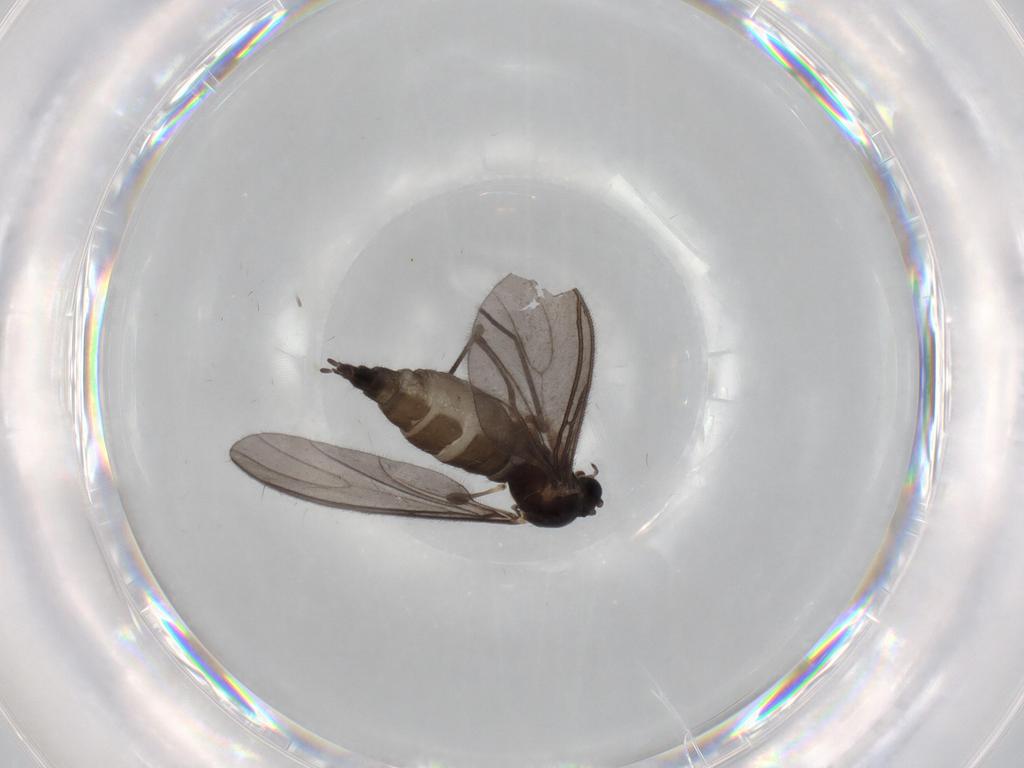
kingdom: Animalia
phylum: Arthropoda
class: Insecta
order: Diptera
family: Sciaridae
